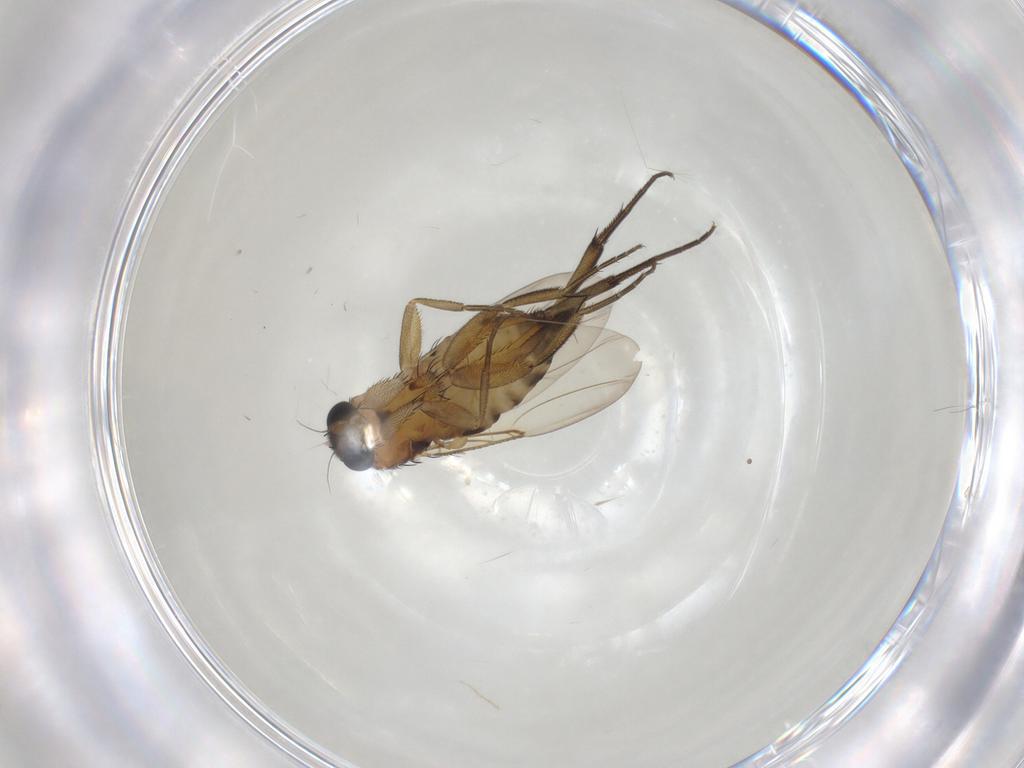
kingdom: Animalia
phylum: Arthropoda
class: Insecta
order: Diptera
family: Phoridae
